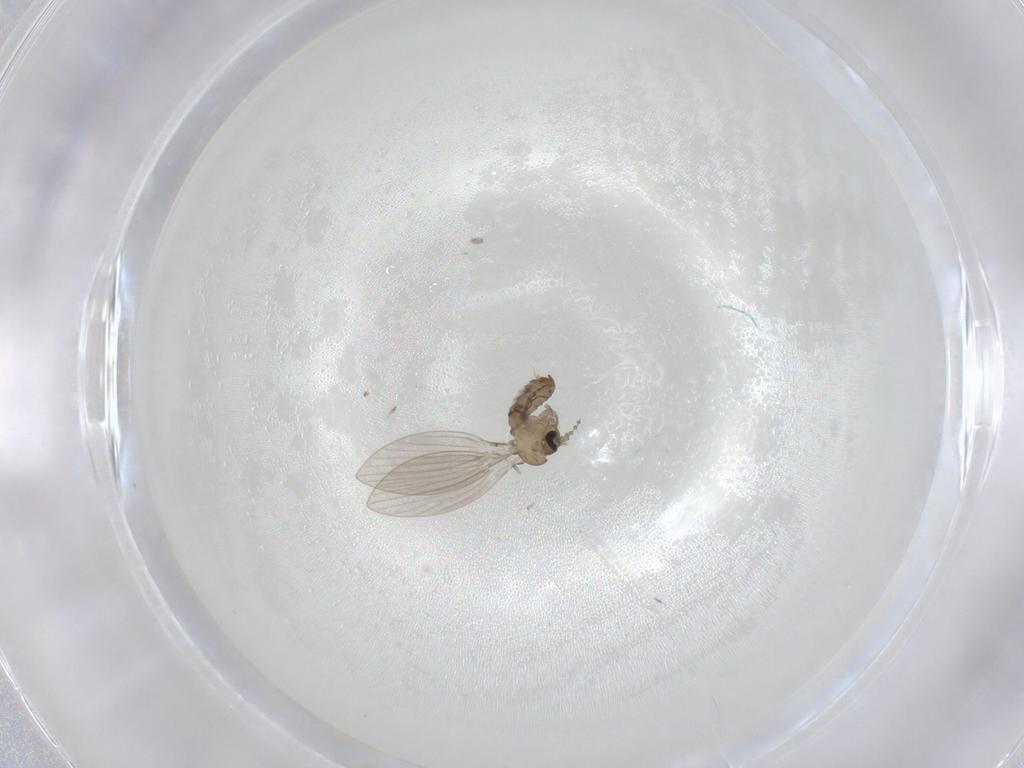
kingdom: Animalia
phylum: Arthropoda
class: Insecta
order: Diptera
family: Psychodidae
